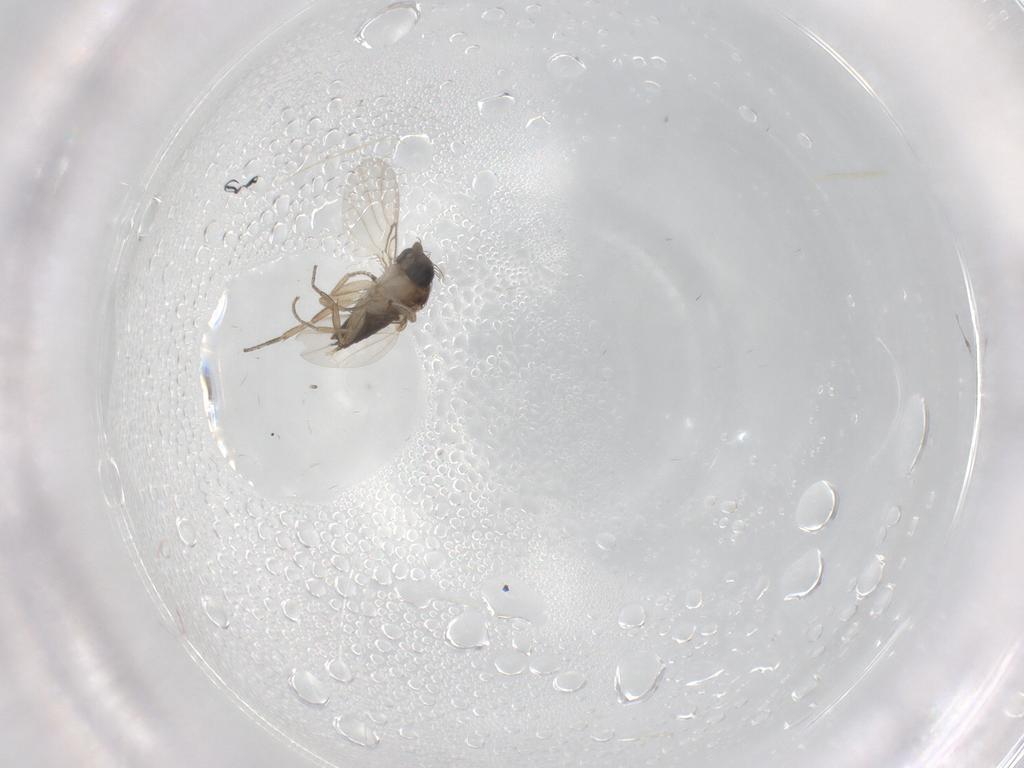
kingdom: Animalia
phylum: Arthropoda
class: Insecta
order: Diptera
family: Phoridae
